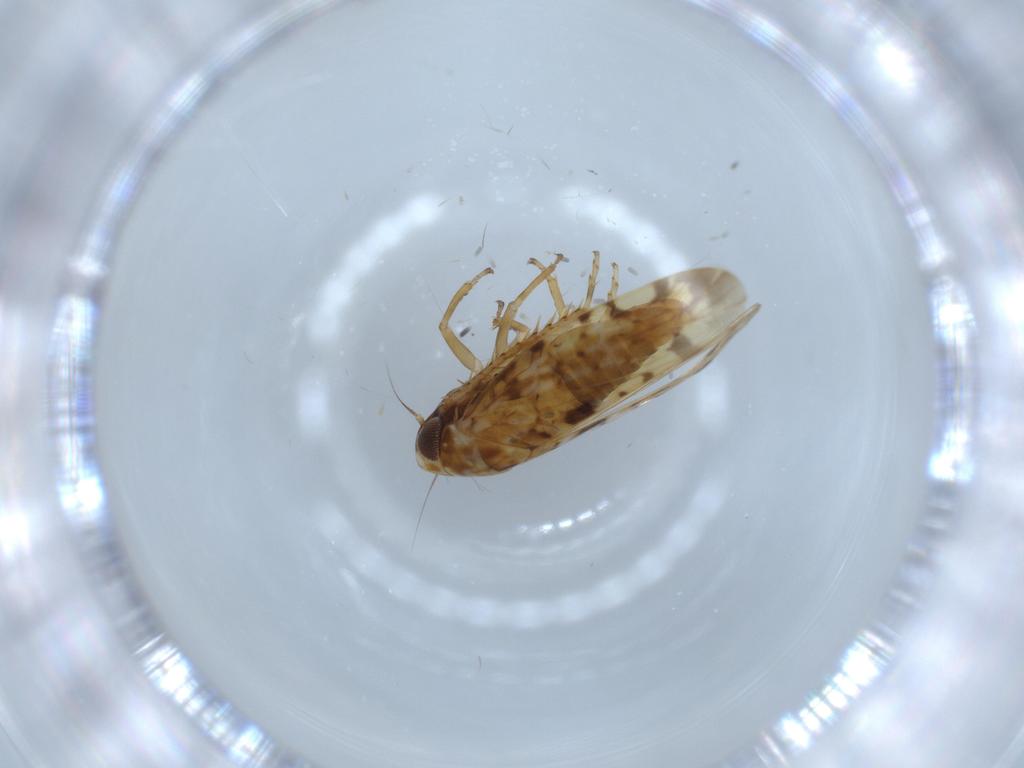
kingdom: Animalia
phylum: Arthropoda
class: Insecta
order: Hemiptera
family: Cicadellidae
